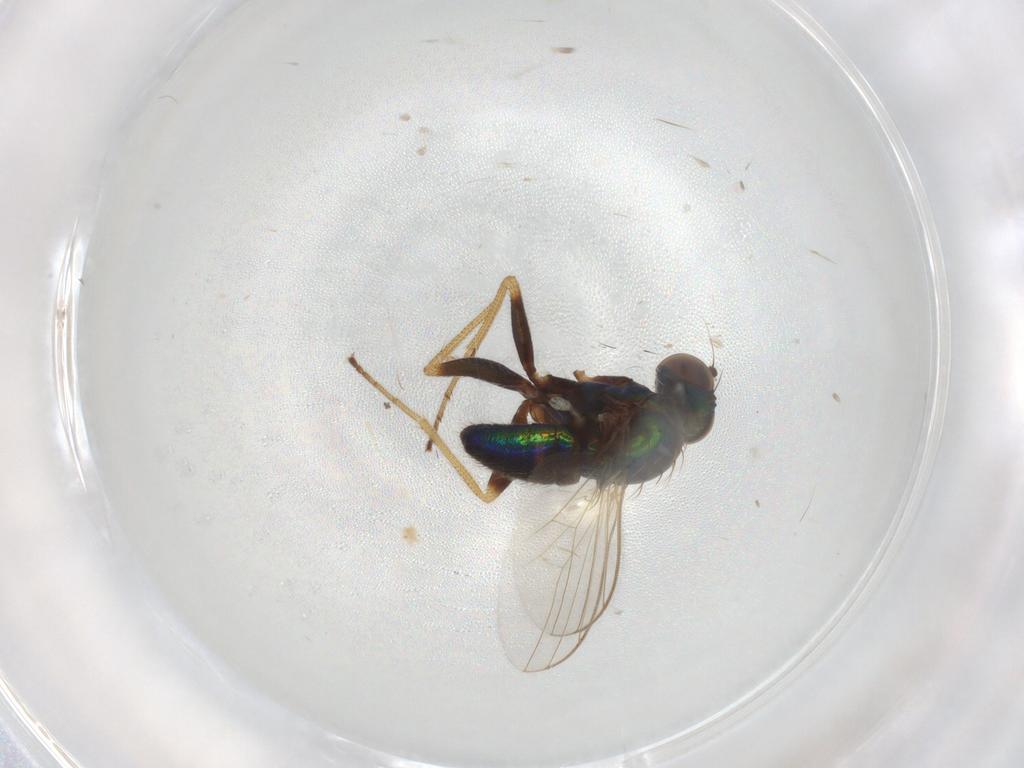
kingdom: Animalia
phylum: Arthropoda
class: Insecta
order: Diptera
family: Dolichopodidae
